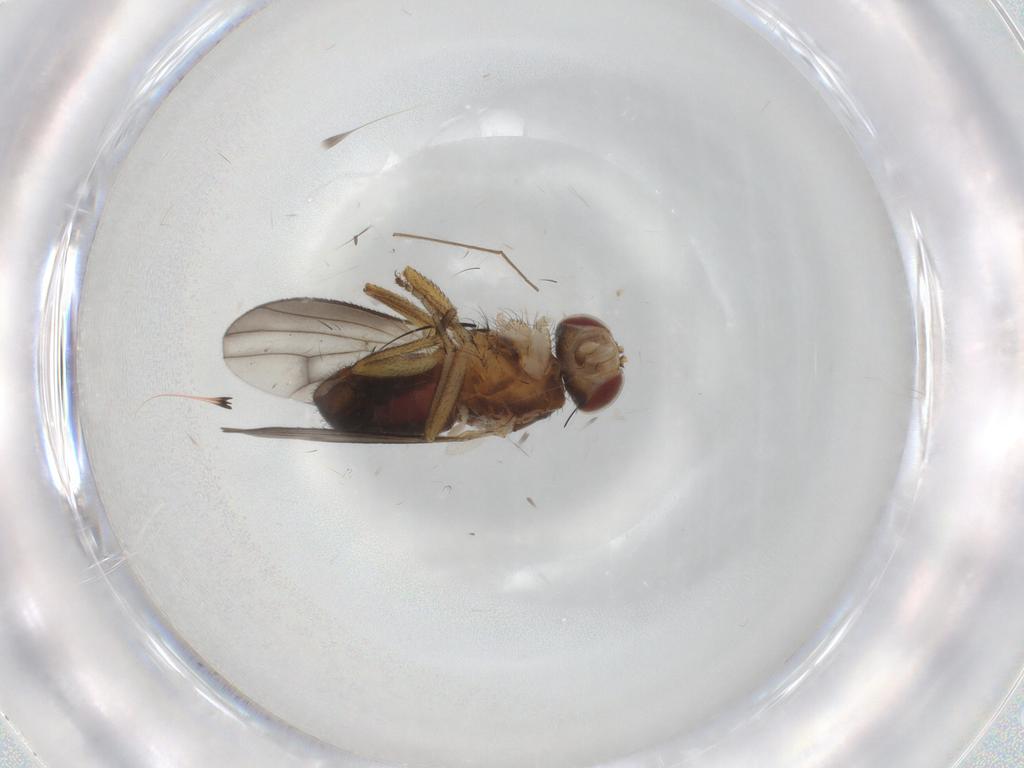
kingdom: Animalia
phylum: Arthropoda
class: Insecta
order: Diptera
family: Heleomyzidae
